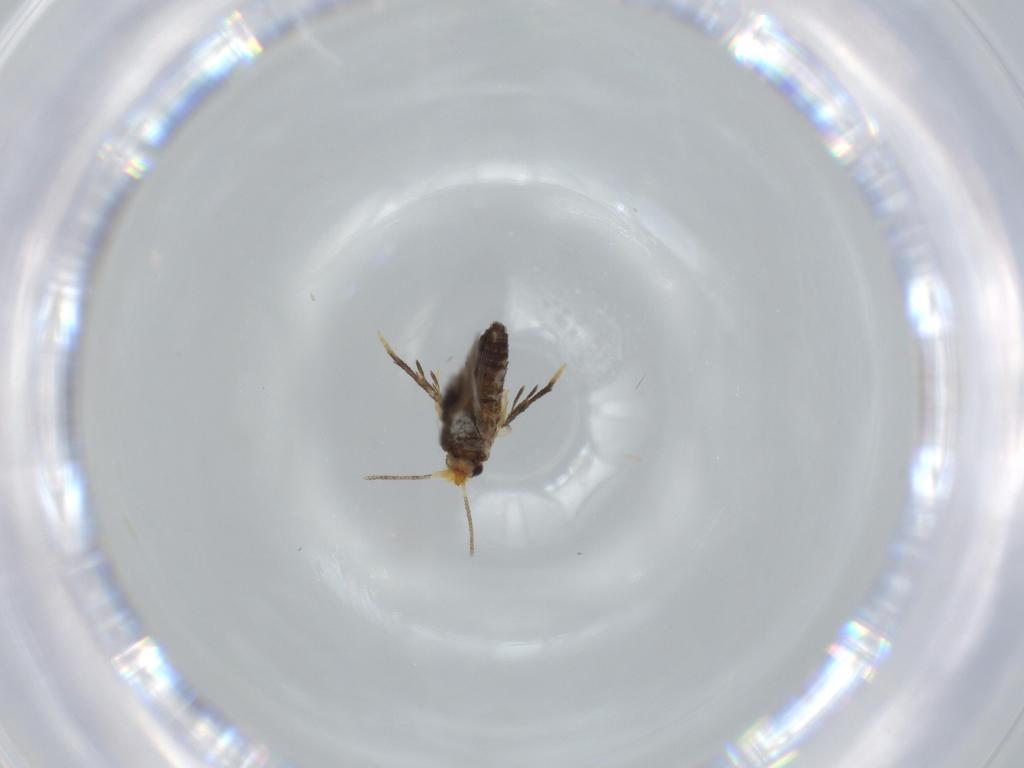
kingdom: Animalia
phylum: Arthropoda
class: Insecta
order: Lepidoptera
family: Nepticulidae
